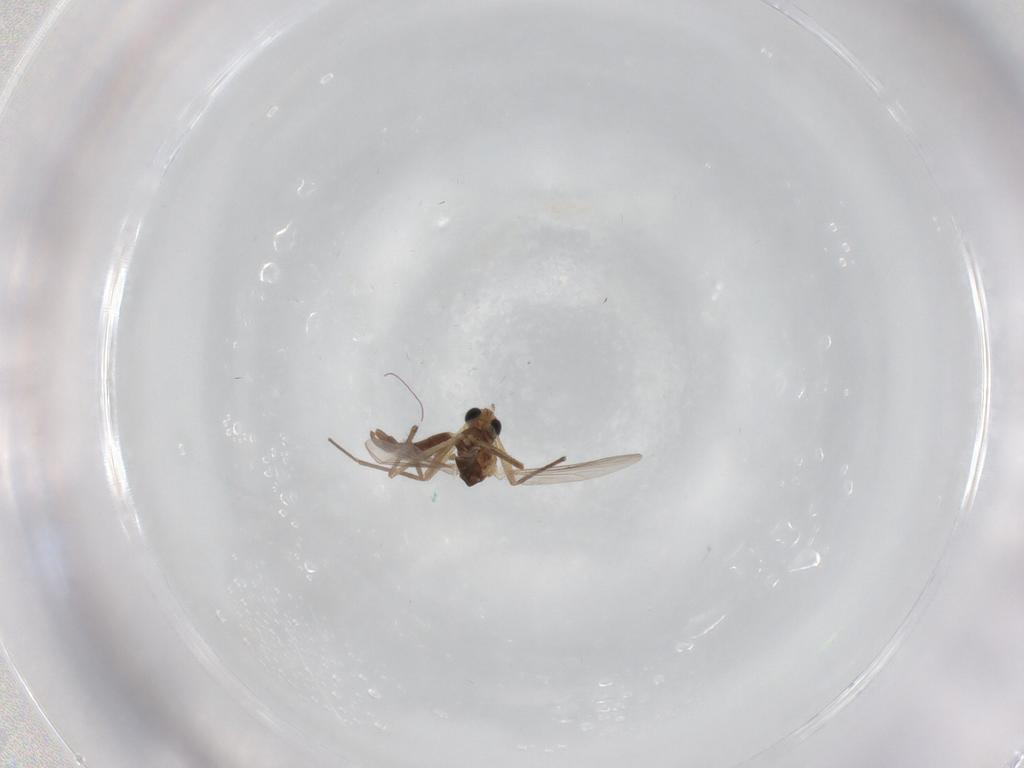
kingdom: Animalia
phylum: Arthropoda
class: Insecta
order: Diptera
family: Chironomidae
